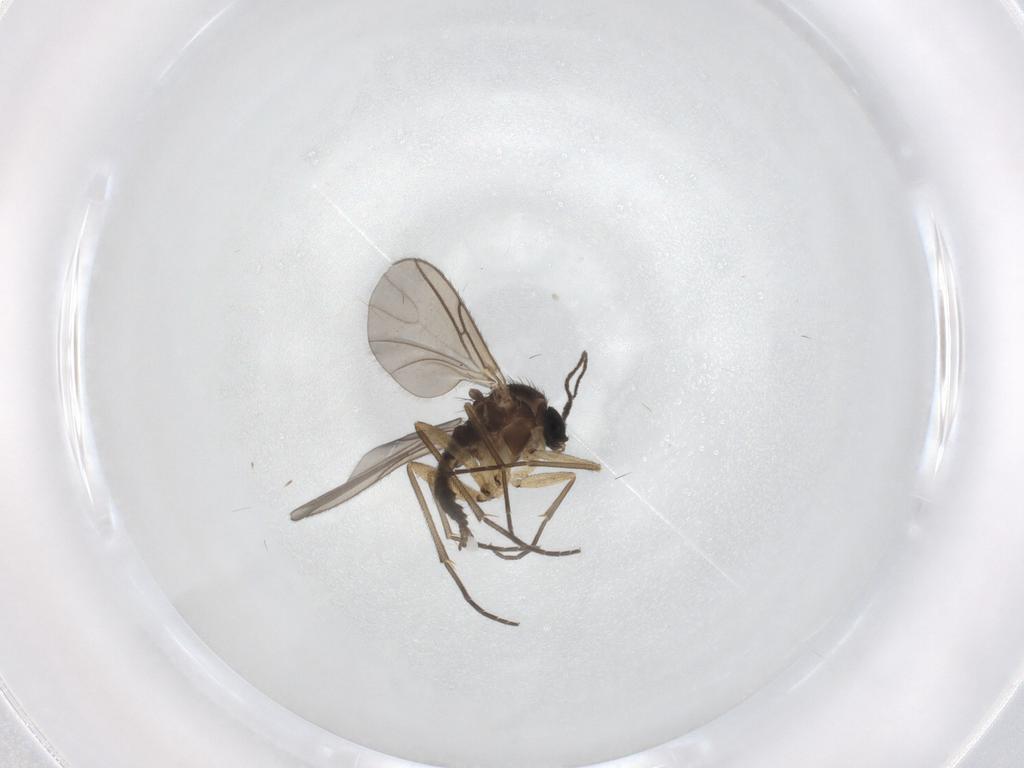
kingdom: Animalia
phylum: Arthropoda
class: Insecta
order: Diptera
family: Sciaridae
